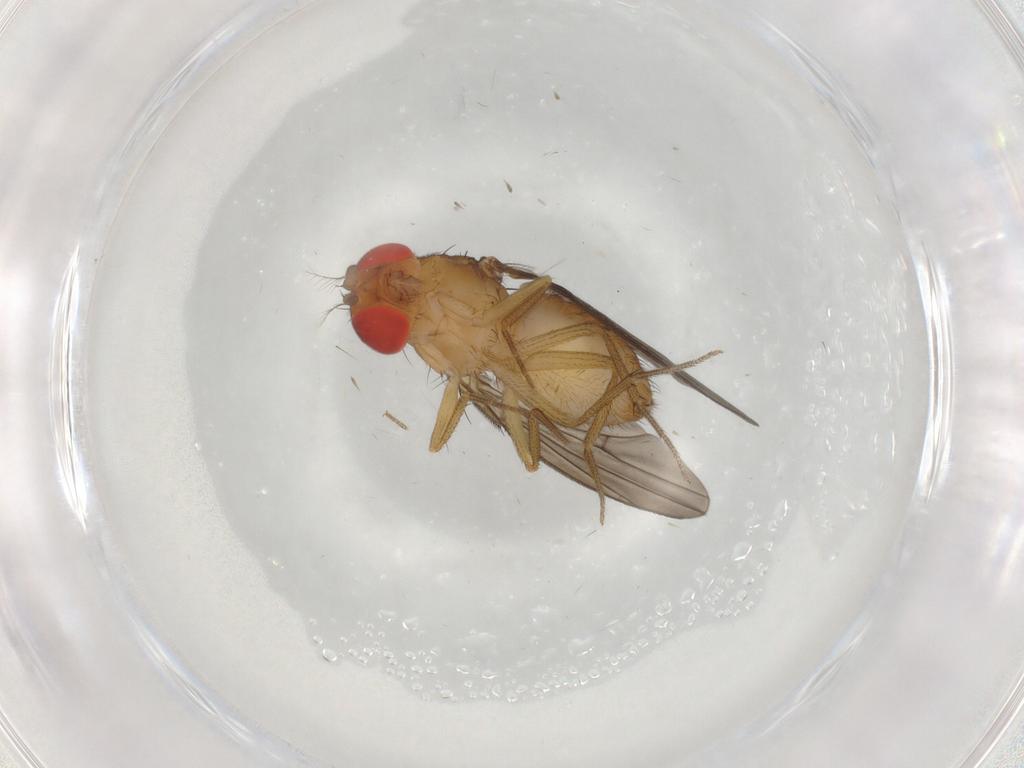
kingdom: Animalia
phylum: Arthropoda
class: Insecta
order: Diptera
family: Drosophilidae
